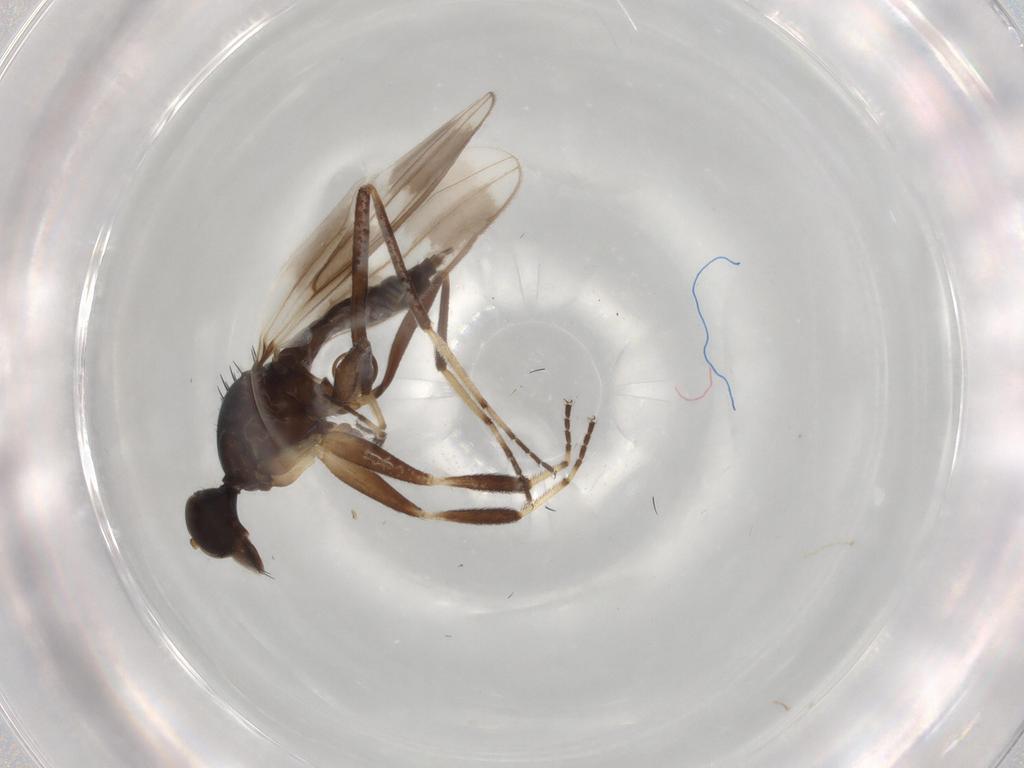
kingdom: Animalia
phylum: Arthropoda
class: Insecta
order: Diptera
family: Hybotidae
